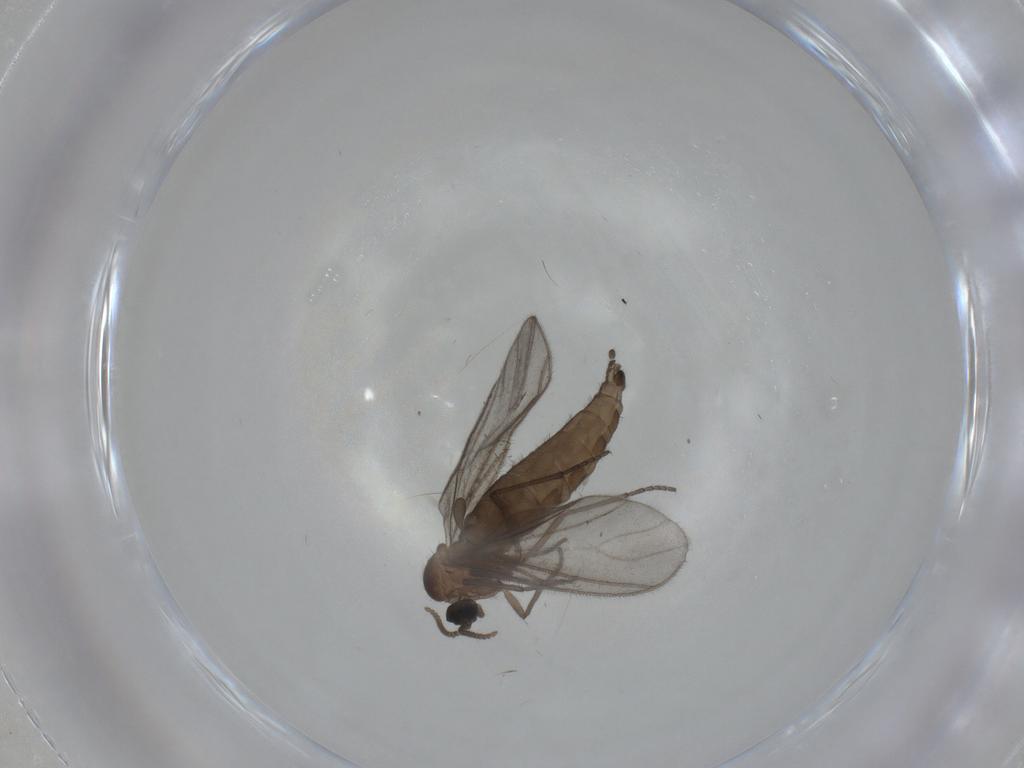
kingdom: Animalia
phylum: Arthropoda
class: Insecta
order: Diptera
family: Sciaridae
